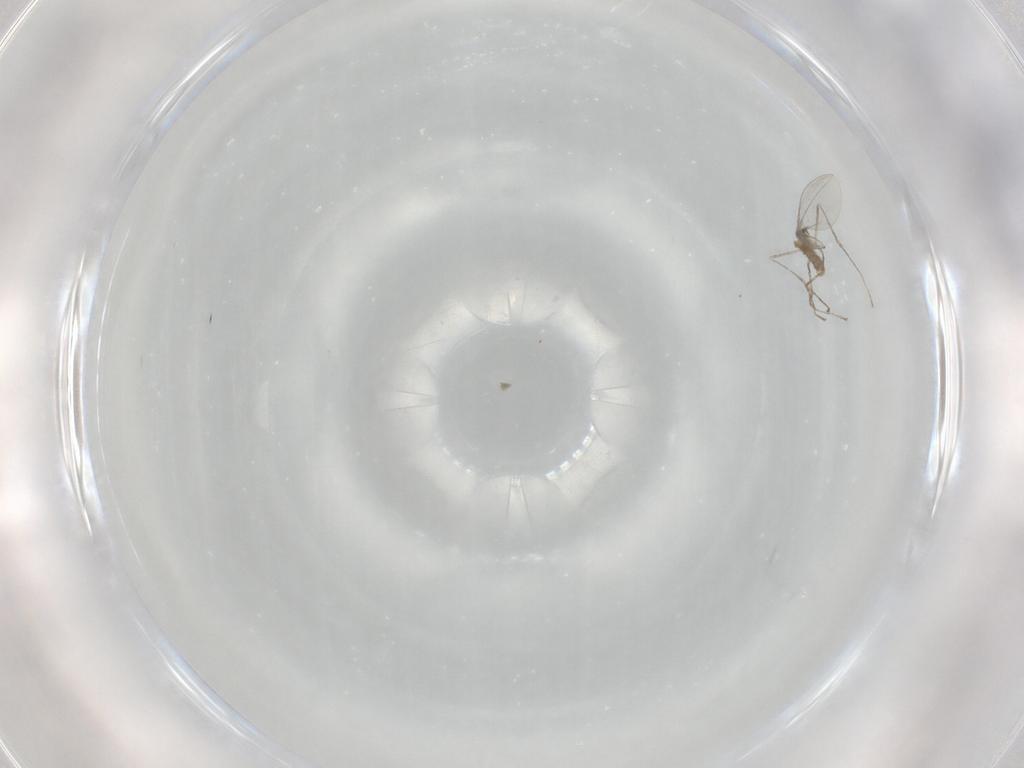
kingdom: Animalia
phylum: Arthropoda
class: Insecta
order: Diptera
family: Cecidomyiidae
